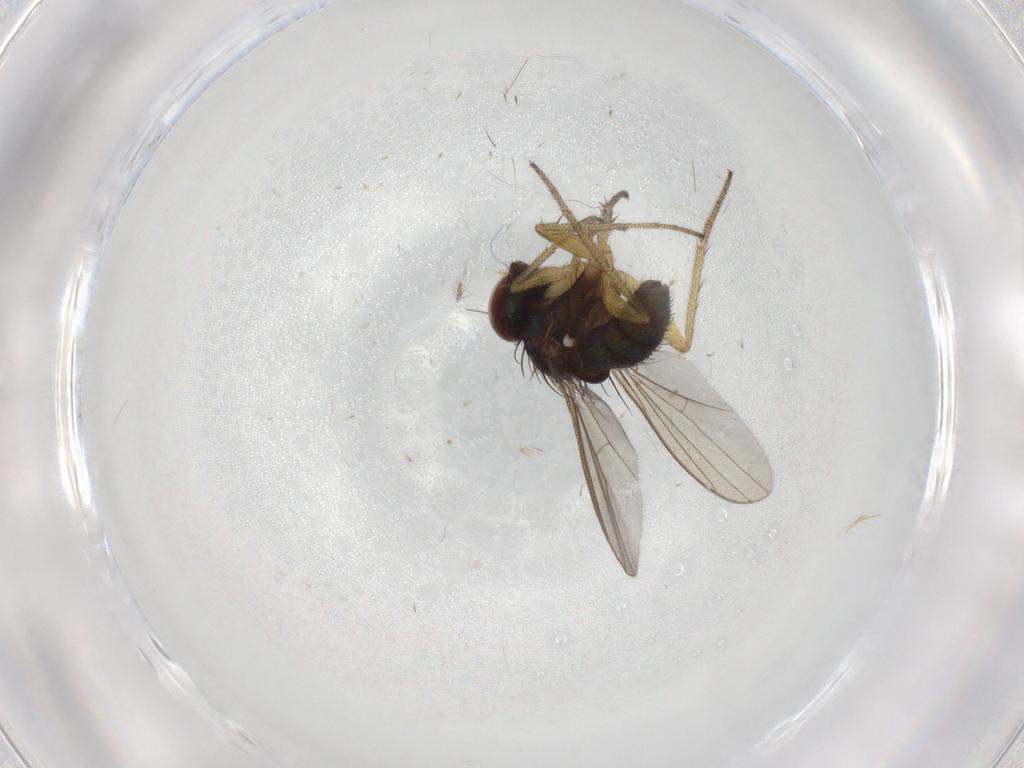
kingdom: Animalia
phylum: Arthropoda
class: Insecta
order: Diptera
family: Dolichopodidae
